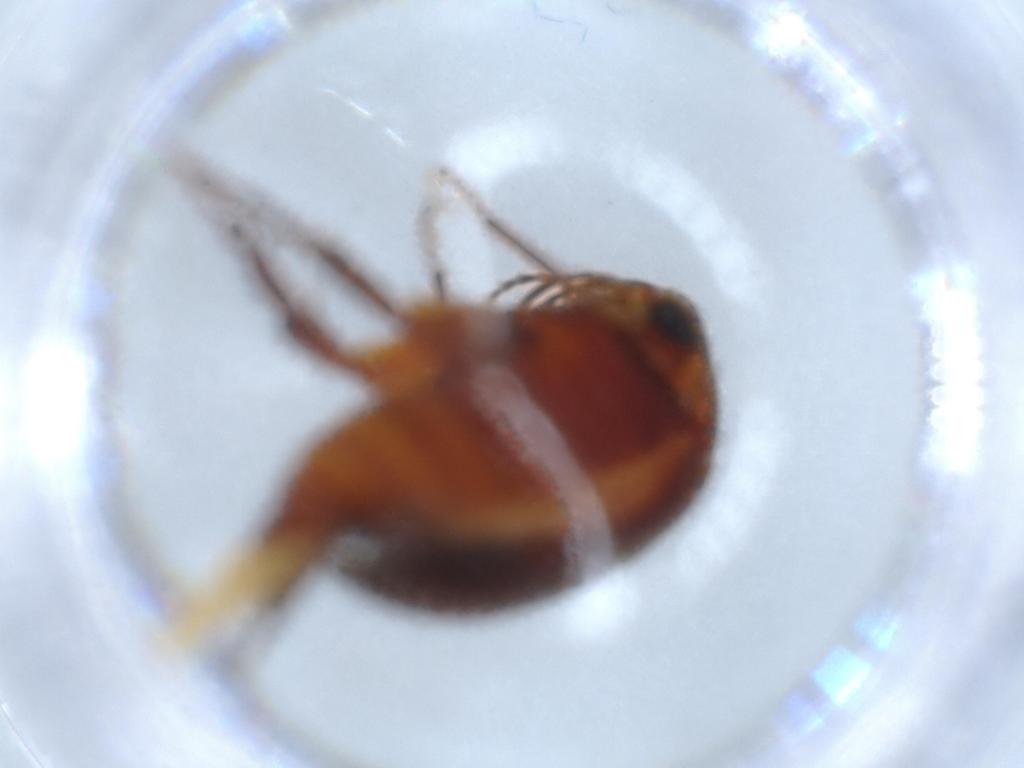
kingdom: Animalia
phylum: Arthropoda
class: Insecta
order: Coleoptera
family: Chrysomelidae
